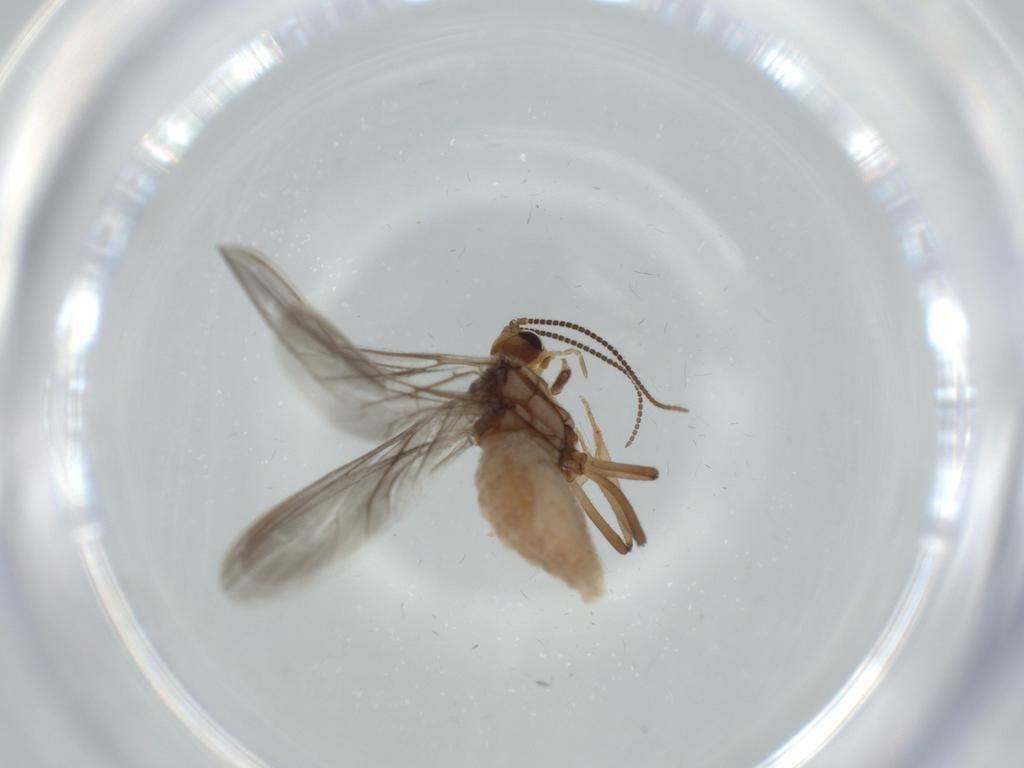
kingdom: Animalia
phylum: Arthropoda
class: Insecta
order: Neuroptera
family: Coniopterygidae
